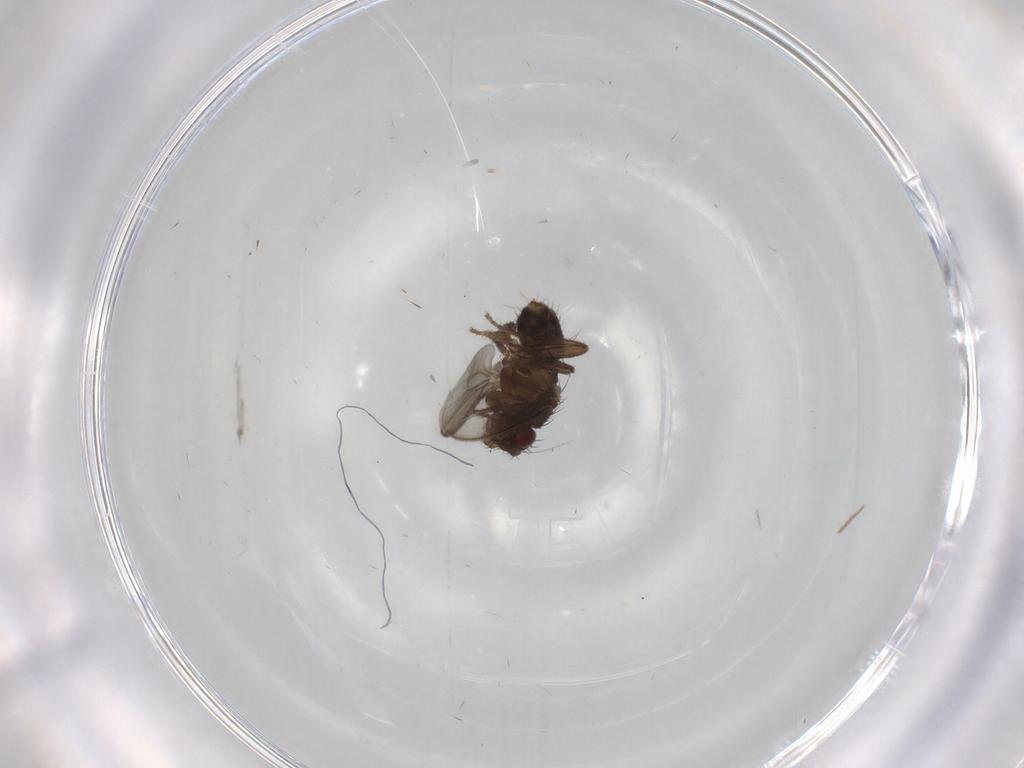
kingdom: Animalia
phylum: Arthropoda
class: Insecta
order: Diptera
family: Sphaeroceridae
